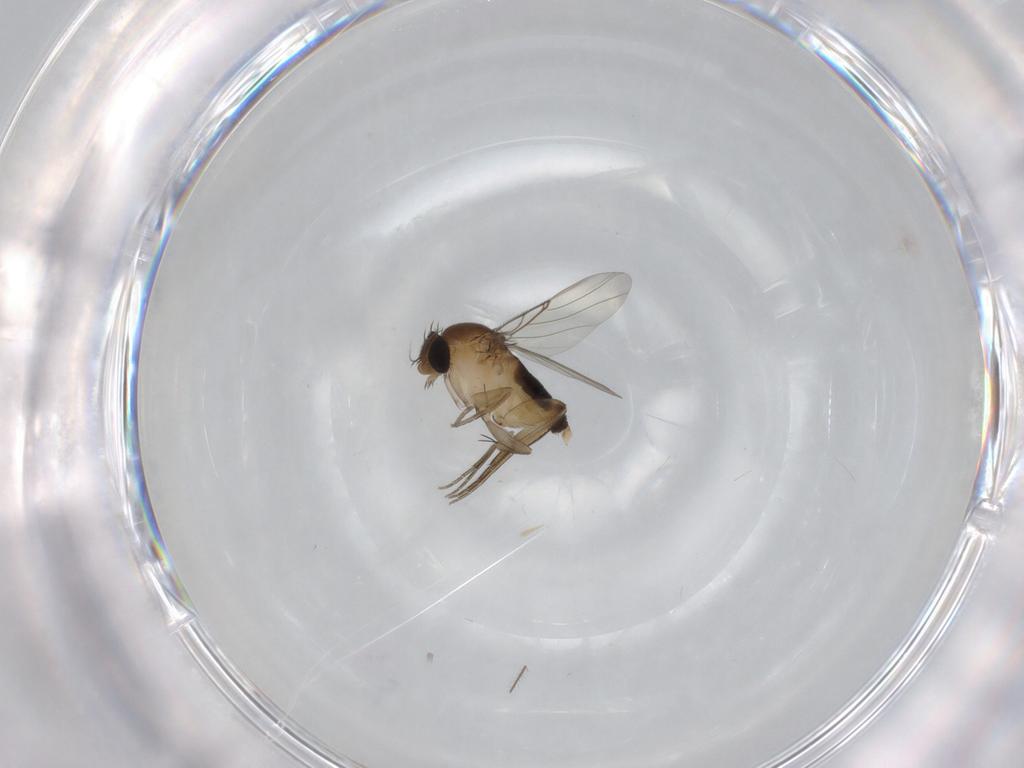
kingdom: Animalia
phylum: Arthropoda
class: Insecta
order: Diptera
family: Phoridae
